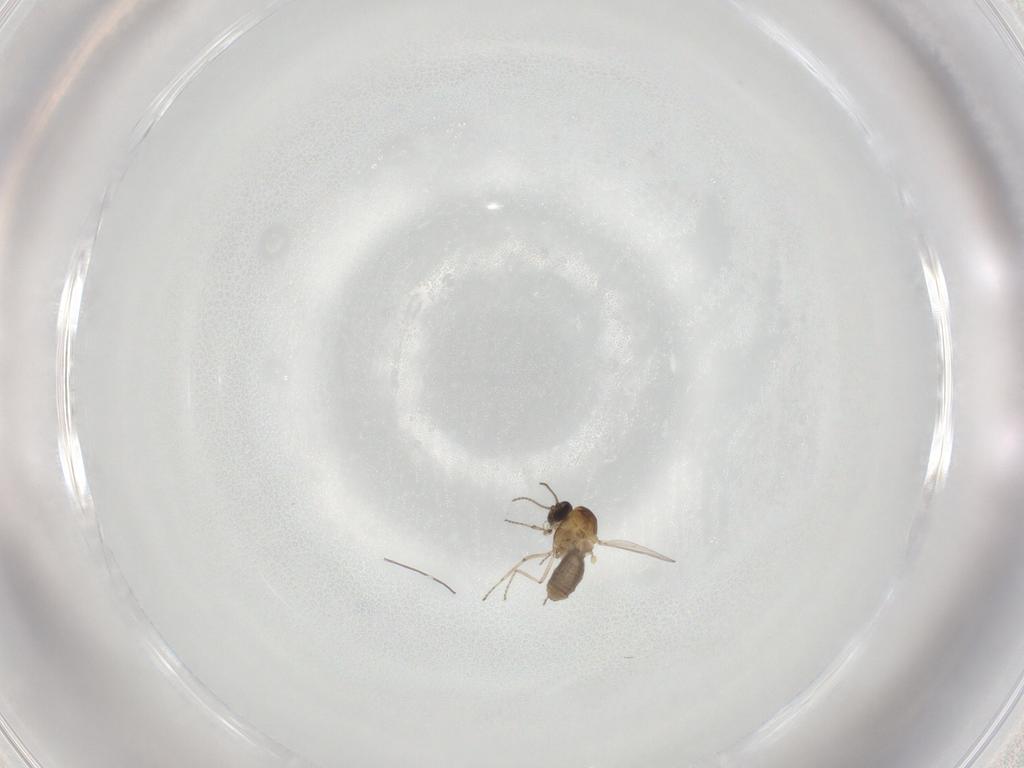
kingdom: Animalia
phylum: Arthropoda
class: Insecta
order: Diptera
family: Ceratopogonidae
